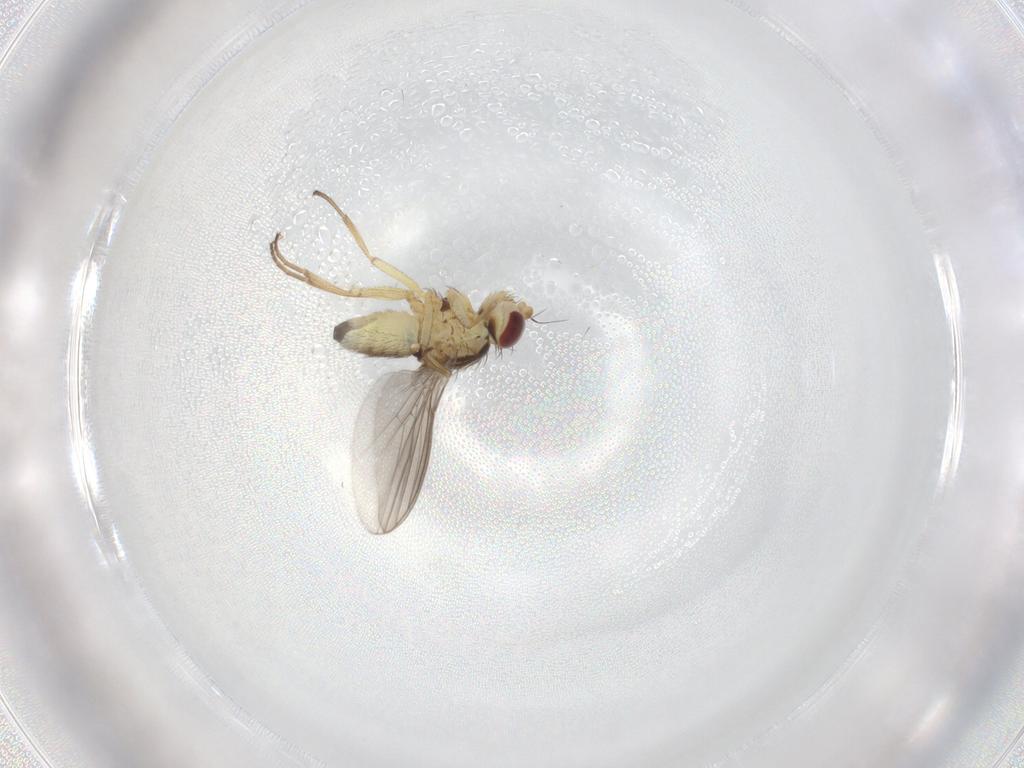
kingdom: Animalia
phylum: Arthropoda
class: Insecta
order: Diptera
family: Agromyzidae
